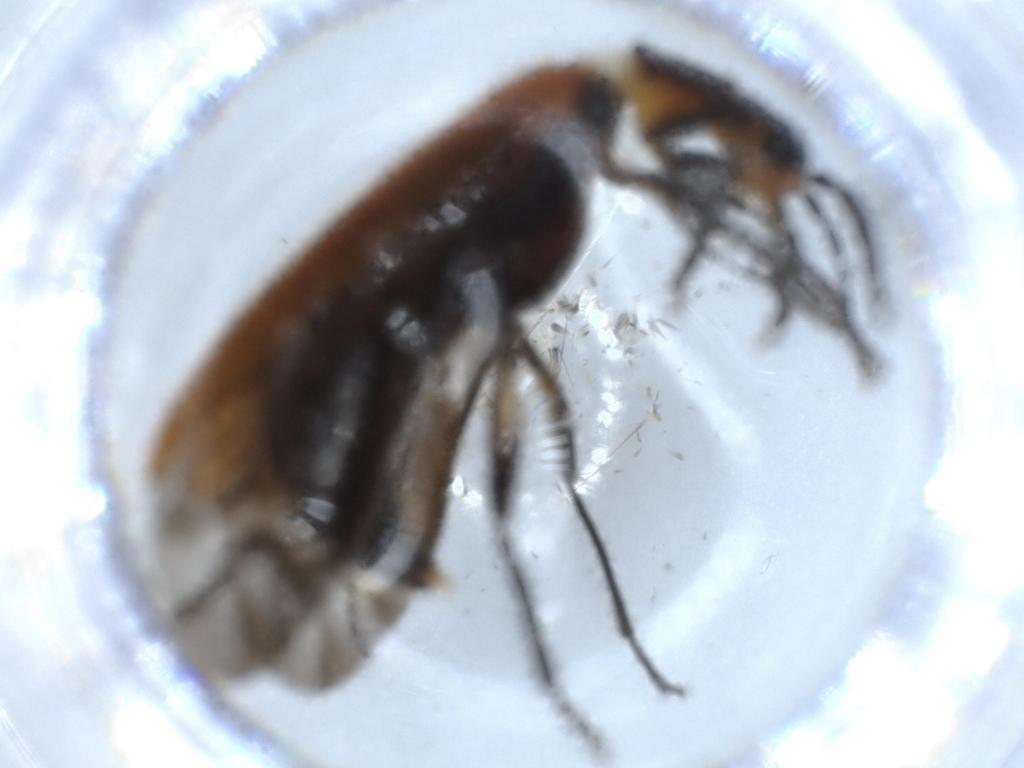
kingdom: Animalia
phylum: Arthropoda
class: Insecta
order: Coleoptera
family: Cleridae
